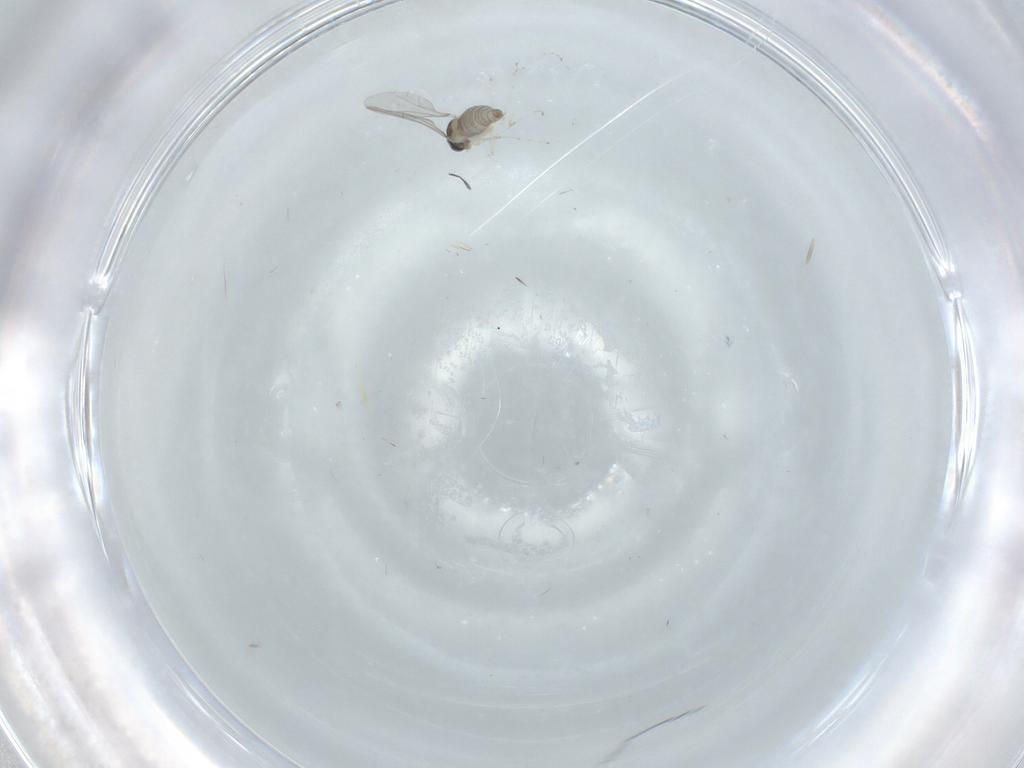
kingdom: Animalia
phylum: Arthropoda
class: Insecta
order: Diptera
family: Cecidomyiidae
